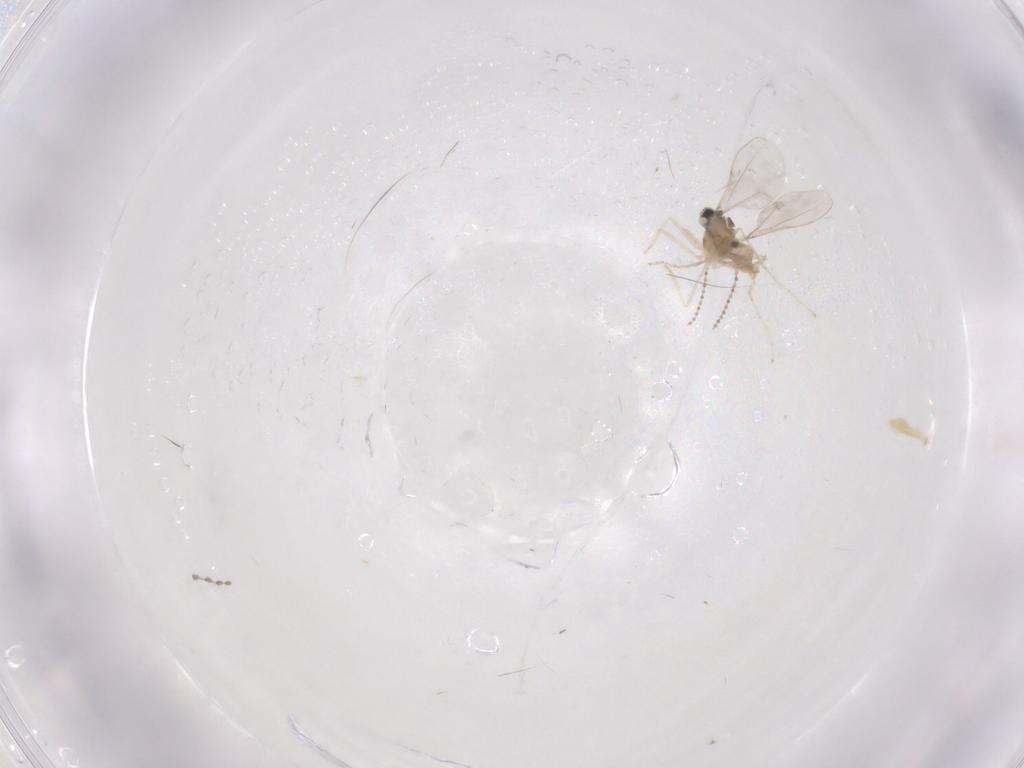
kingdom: Animalia
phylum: Arthropoda
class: Insecta
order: Diptera
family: Cecidomyiidae
